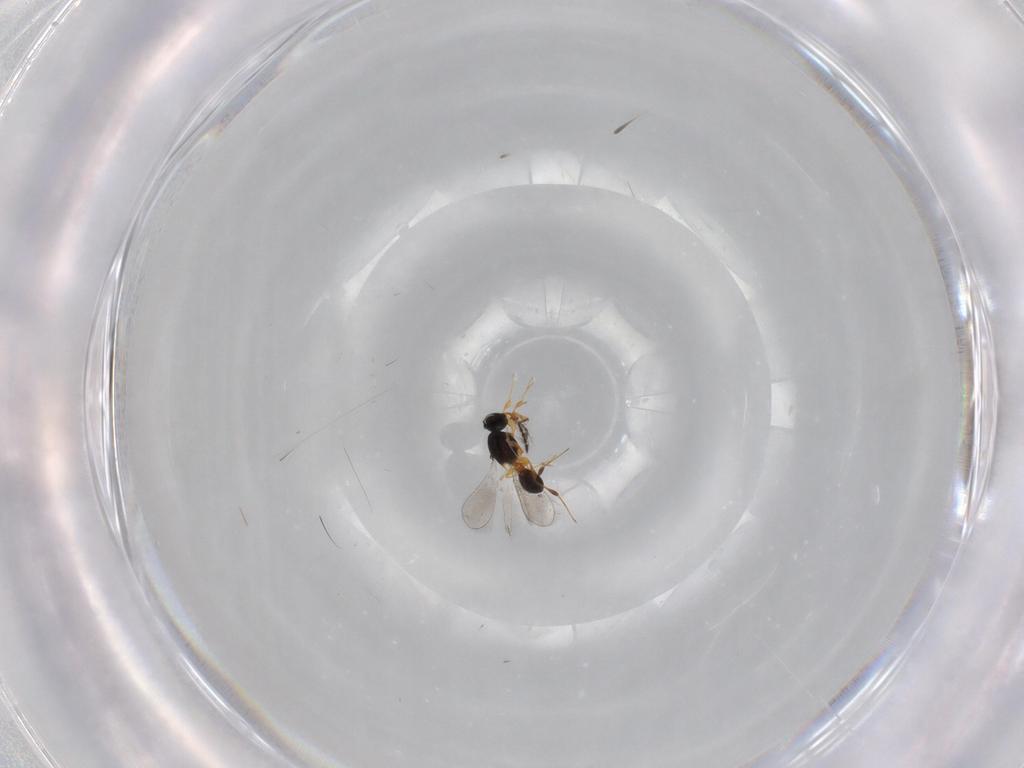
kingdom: Animalia
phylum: Arthropoda
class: Insecta
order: Hymenoptera
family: Platygastridae
